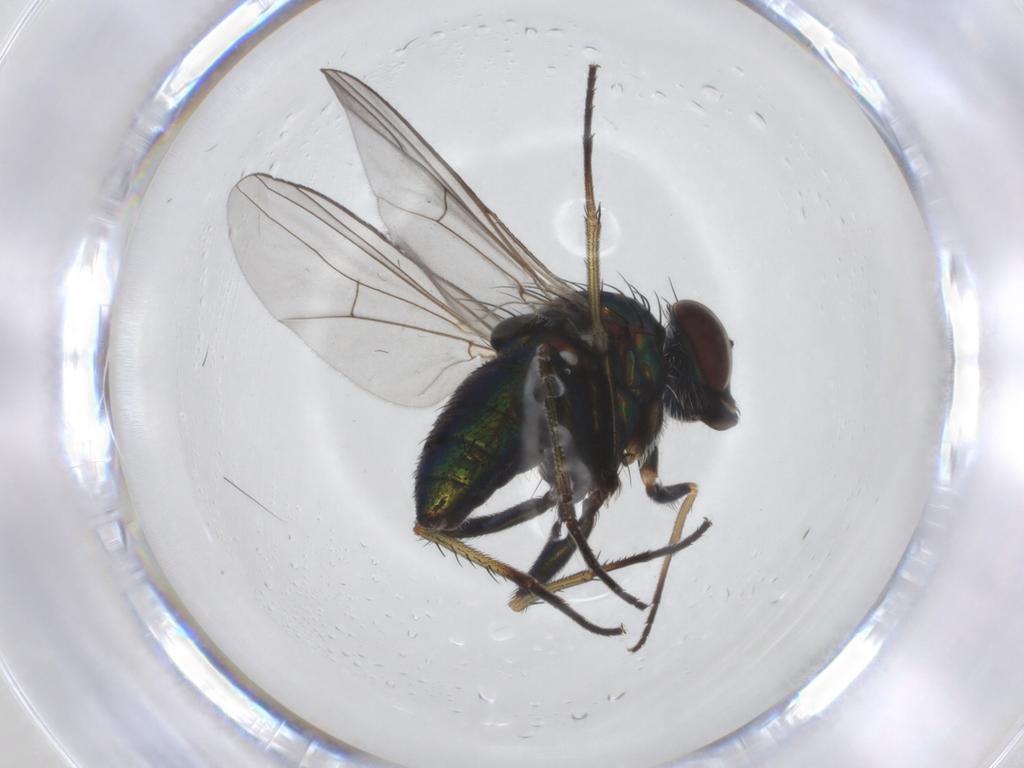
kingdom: Animalia
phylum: Arthropoda
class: Insecta
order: Diptera
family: Dolichopodidae
